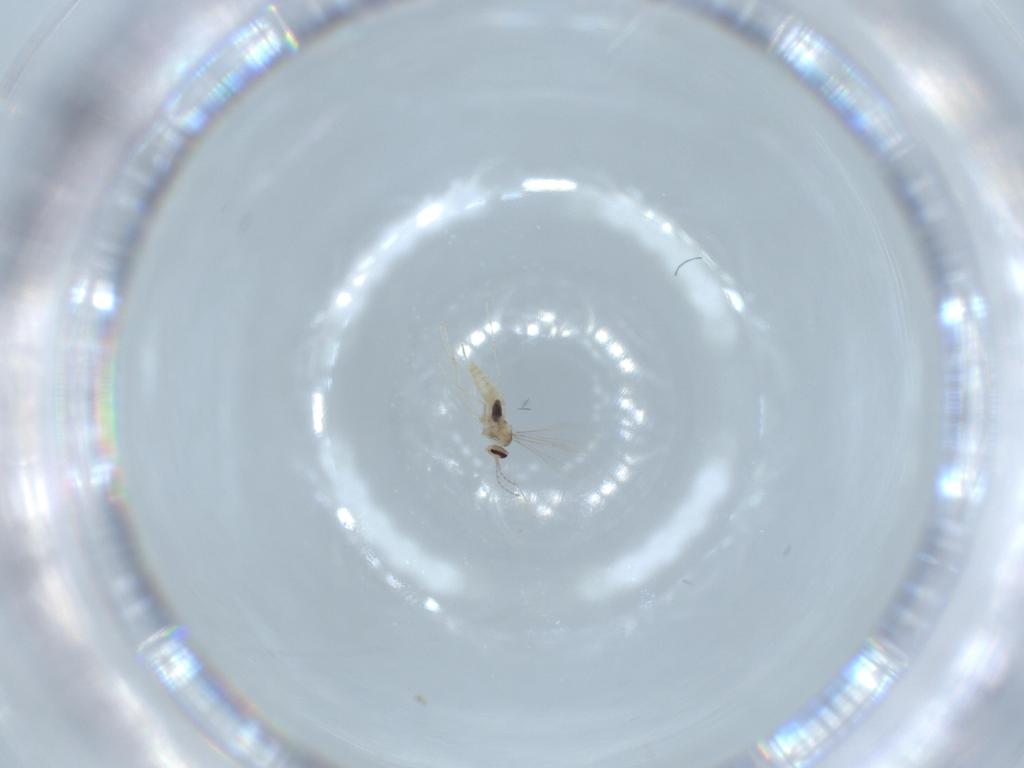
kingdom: Animalia
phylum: Arthropoda
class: Insecta
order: Diptera
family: Cecidomyiidae
